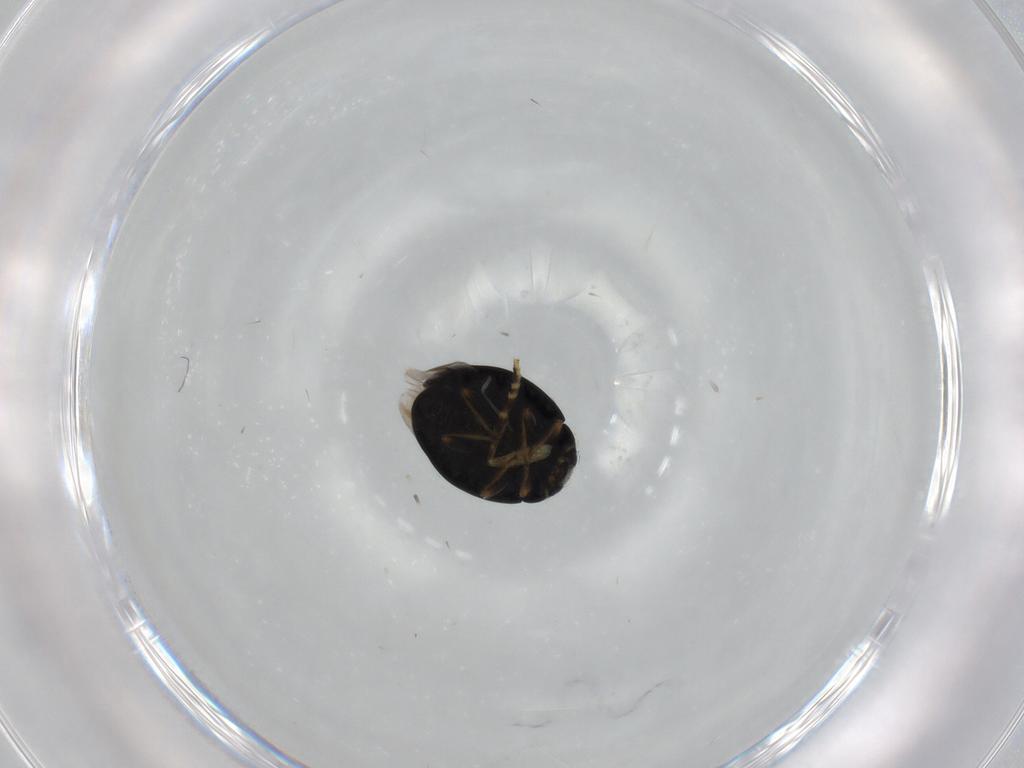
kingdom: Animalia
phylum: Arthropoda
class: Insecta
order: Coleoptera
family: Coccinellidae
